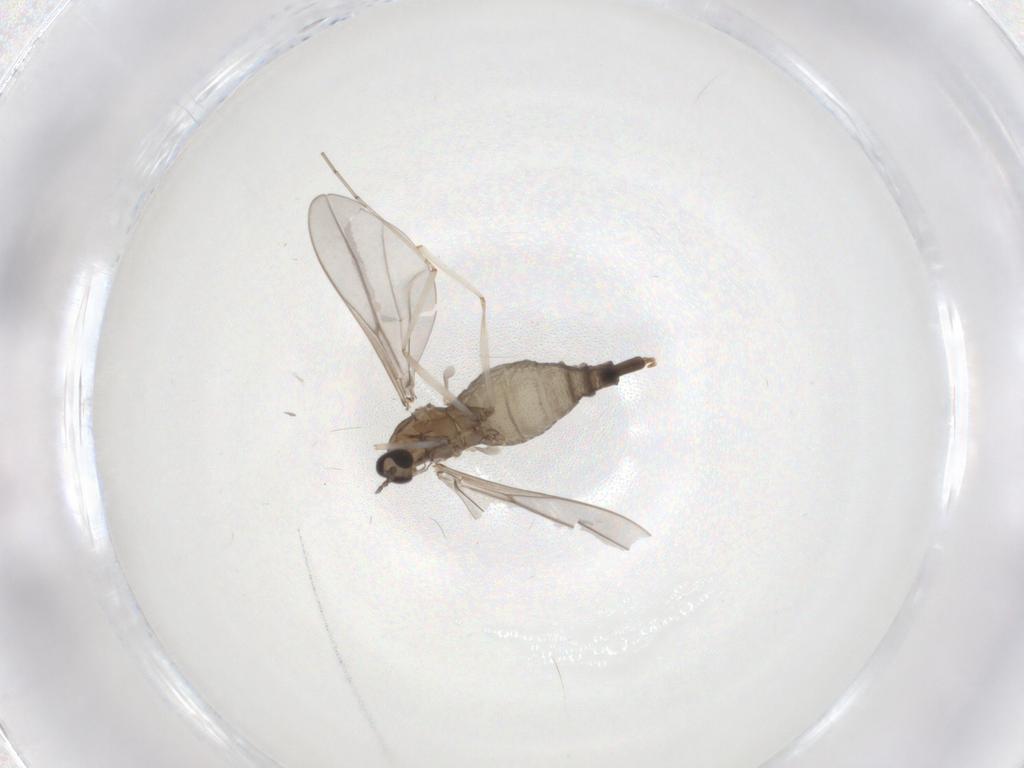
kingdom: Animalia
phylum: Arthropoda
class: Insecta
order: Diptera
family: Cecidomyiidae
